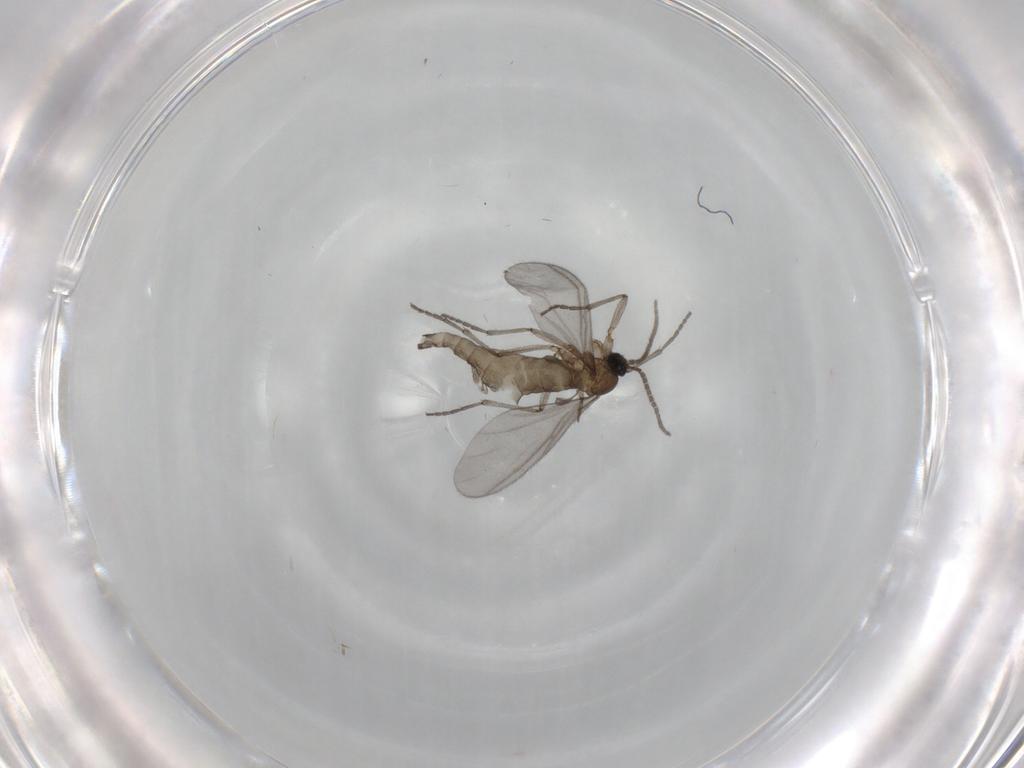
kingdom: Animalia
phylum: Arthropoda
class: Insecta
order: Diptera
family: Sciaridae
